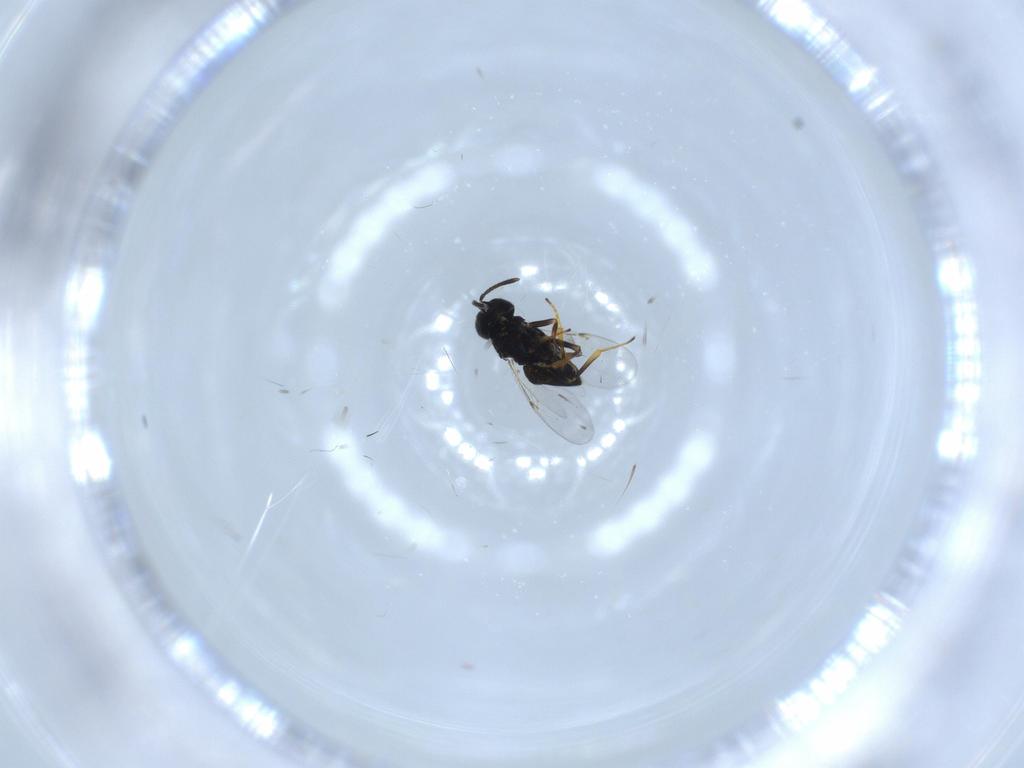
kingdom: Animalia
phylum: Arthropoda
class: Insecta
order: Hymenoptera
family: Encyrtidae
